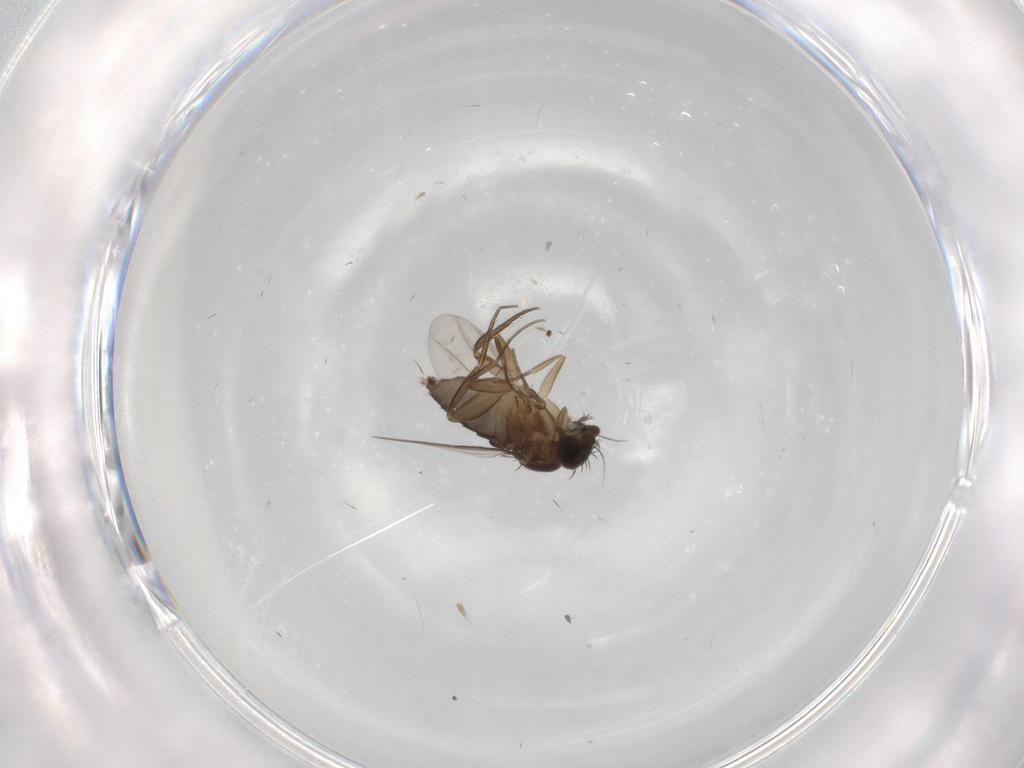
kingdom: Animalia
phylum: Arthropoda
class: Insecta
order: Diptera
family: Phoridae
